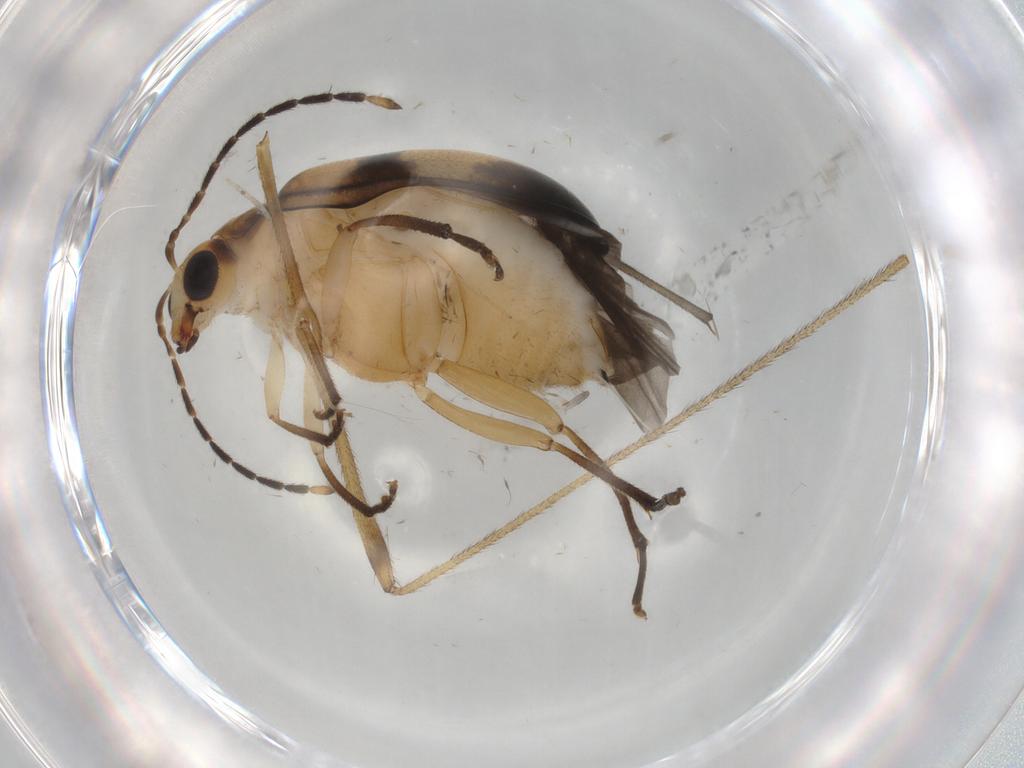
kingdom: Animalia
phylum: Arthropoda
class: Insecta
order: Coleoptera
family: Chrysomelidae
